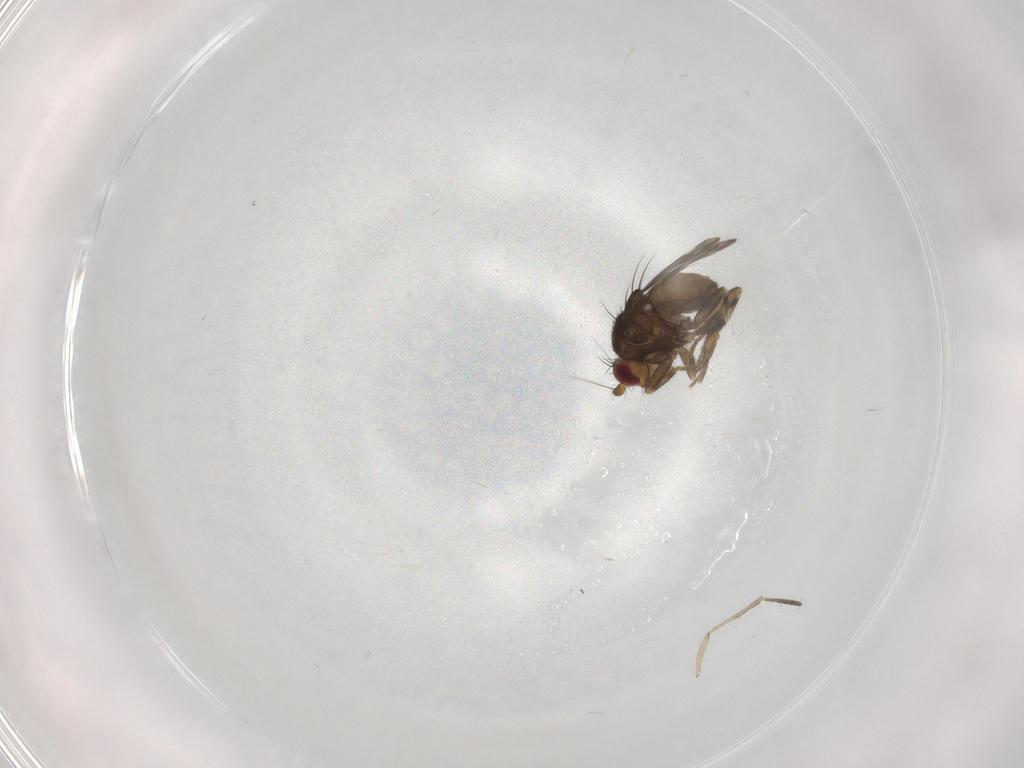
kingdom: Animalia
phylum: Arthropoda
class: Insecta
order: Diptera
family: Sphaeroceridae
